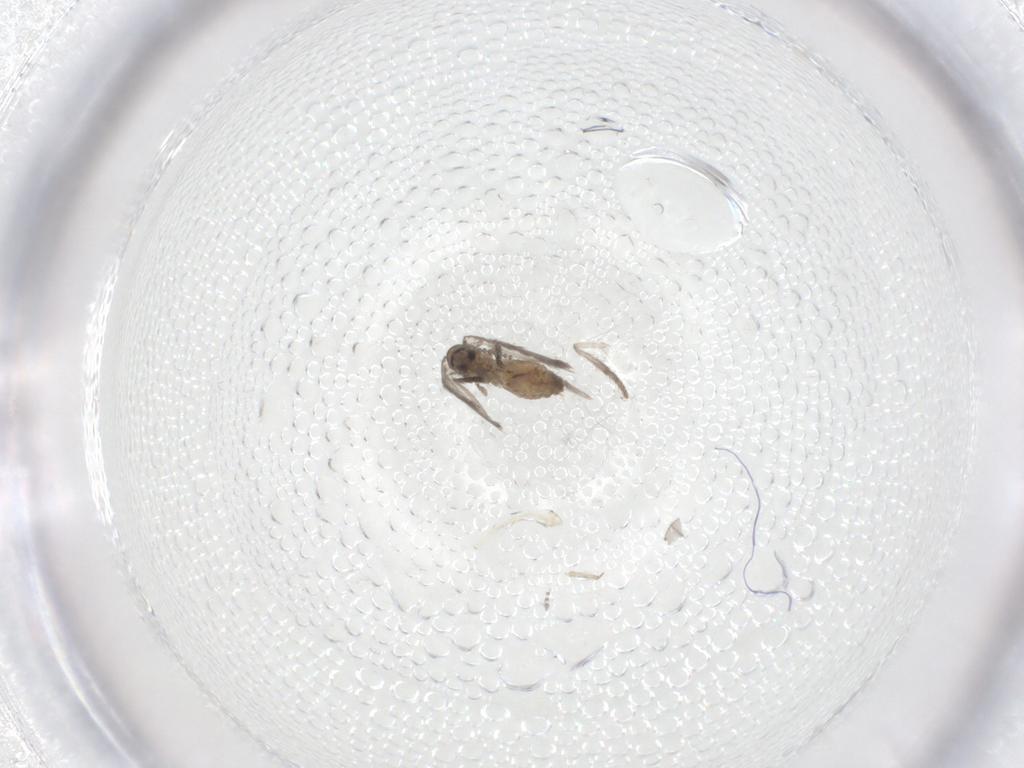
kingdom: Animalia
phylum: Arthropoda
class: Insecta
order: Diptera
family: Psychodidae
